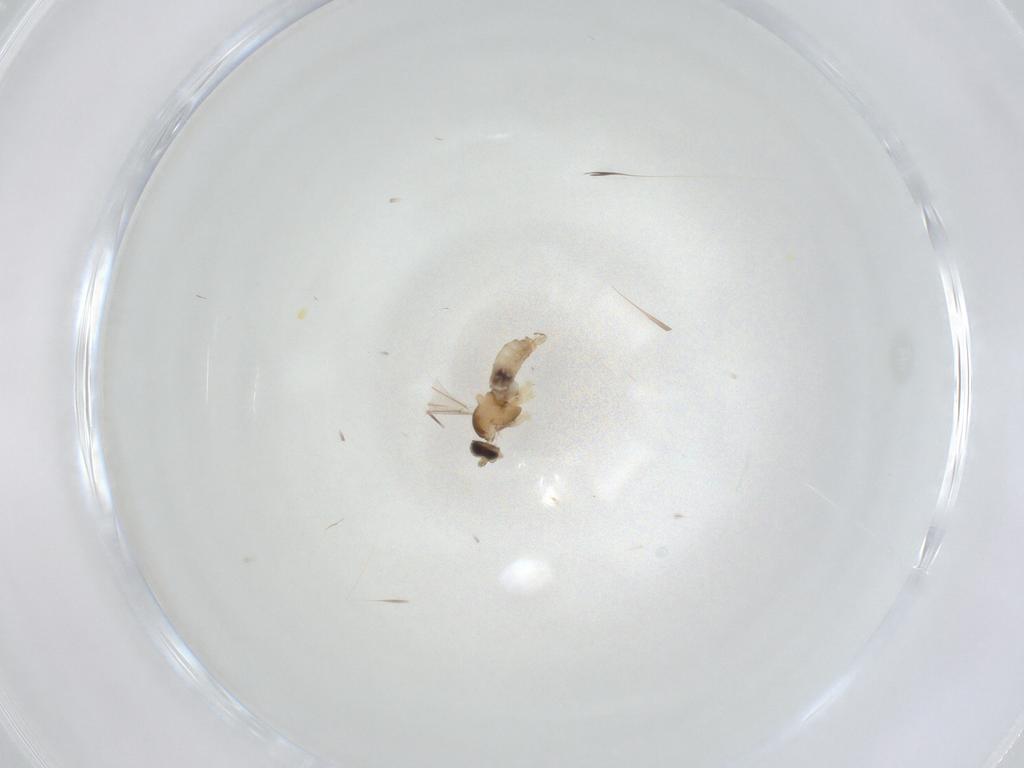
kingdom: Animalia
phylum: Arthropoda
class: Insecta
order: Diptera
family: Cecidomyiidae
